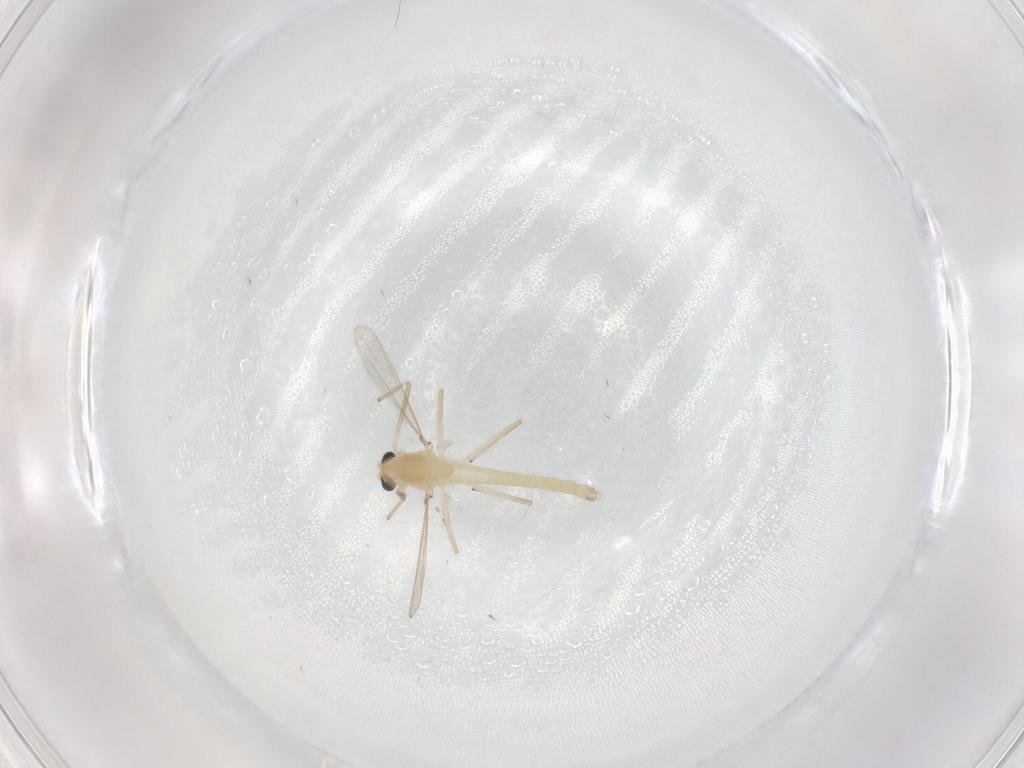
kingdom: Animalia
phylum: Arthropoda
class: Insecta
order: Diptera
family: Chironomidae
